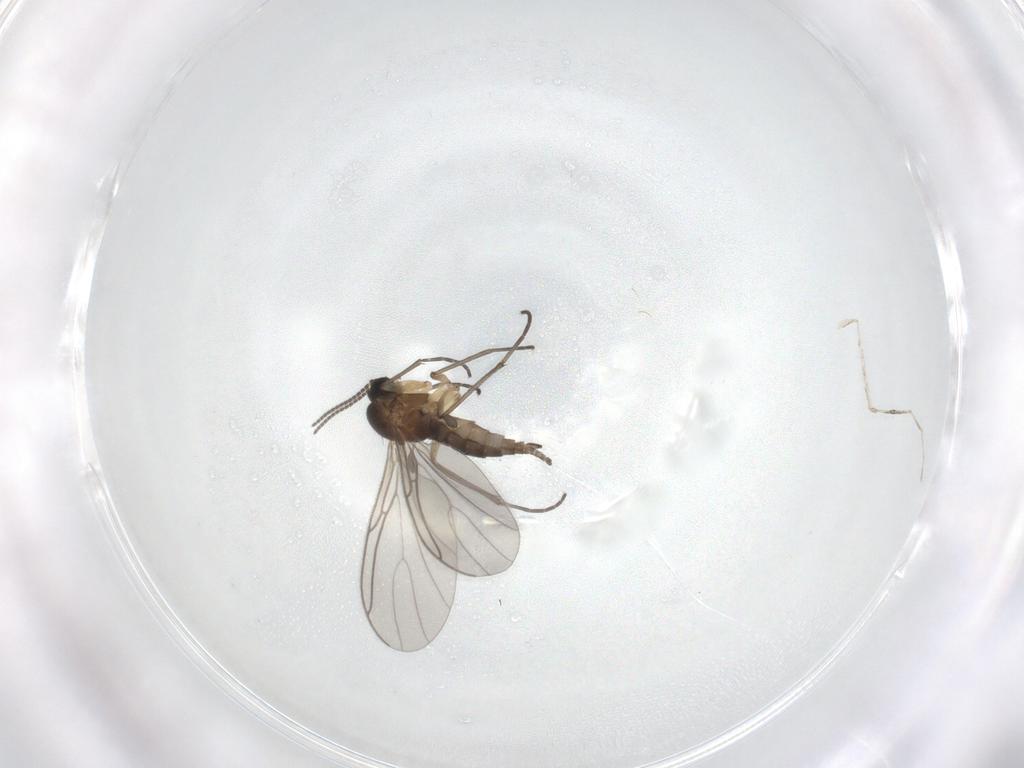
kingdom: Animalia
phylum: Arthropoda
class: Insecta
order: Diptera
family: Sciaridae
